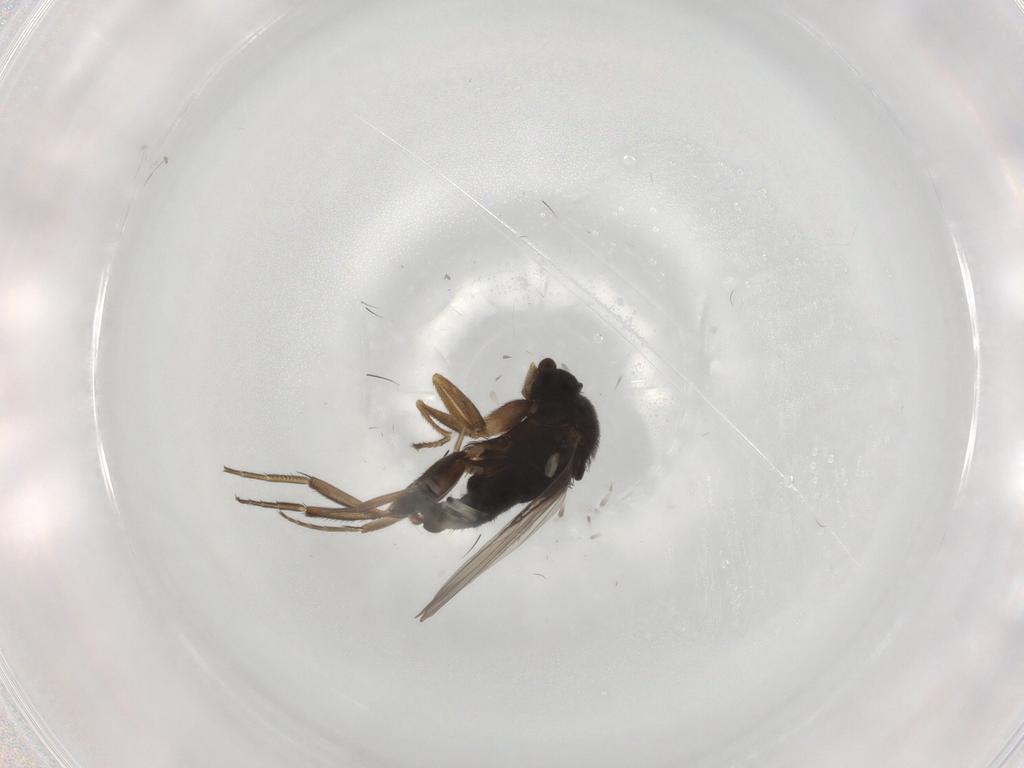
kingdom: Animalia
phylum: Arthropoda
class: Insecta
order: Diptera
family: Phoridae
